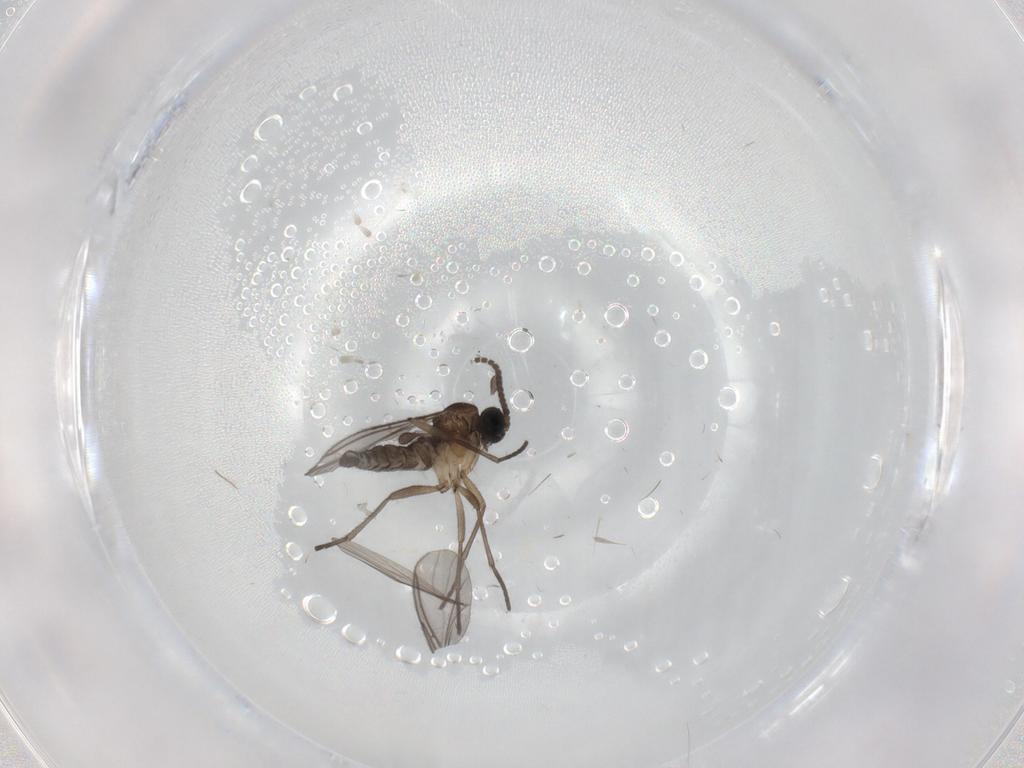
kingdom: Animalia
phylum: Arthropoda
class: Insecta
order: Diptera
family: Sciaridae
